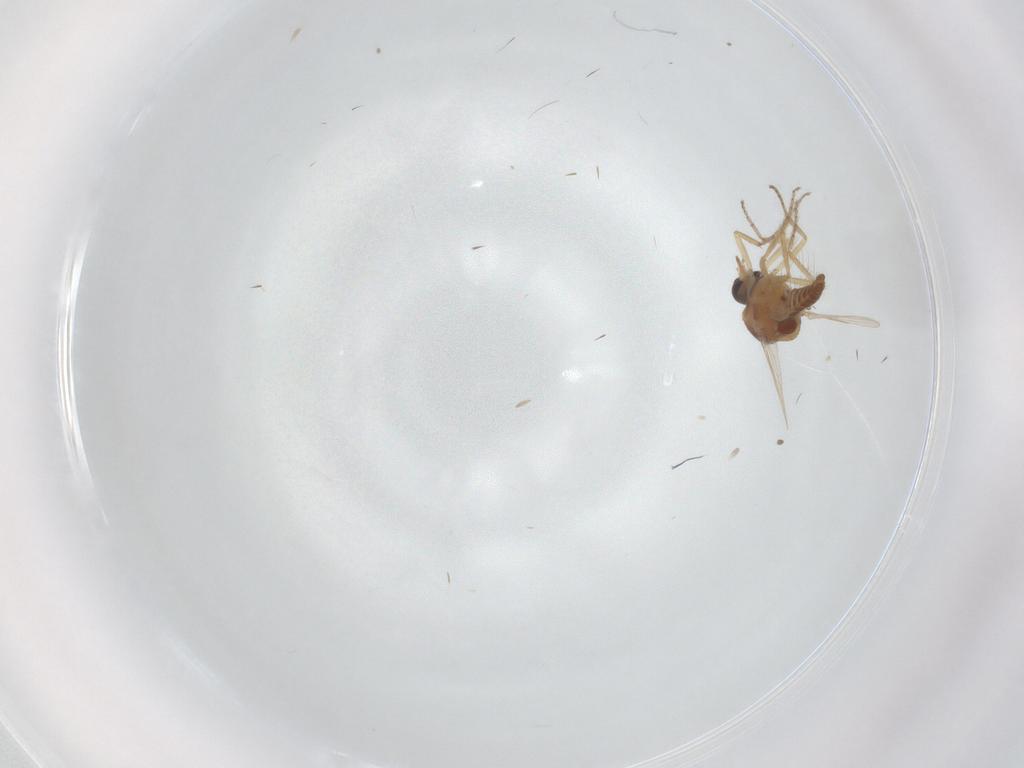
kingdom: Animalia
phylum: Arthropoda
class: Insecta
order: Diptera
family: Ceratopogonidae
